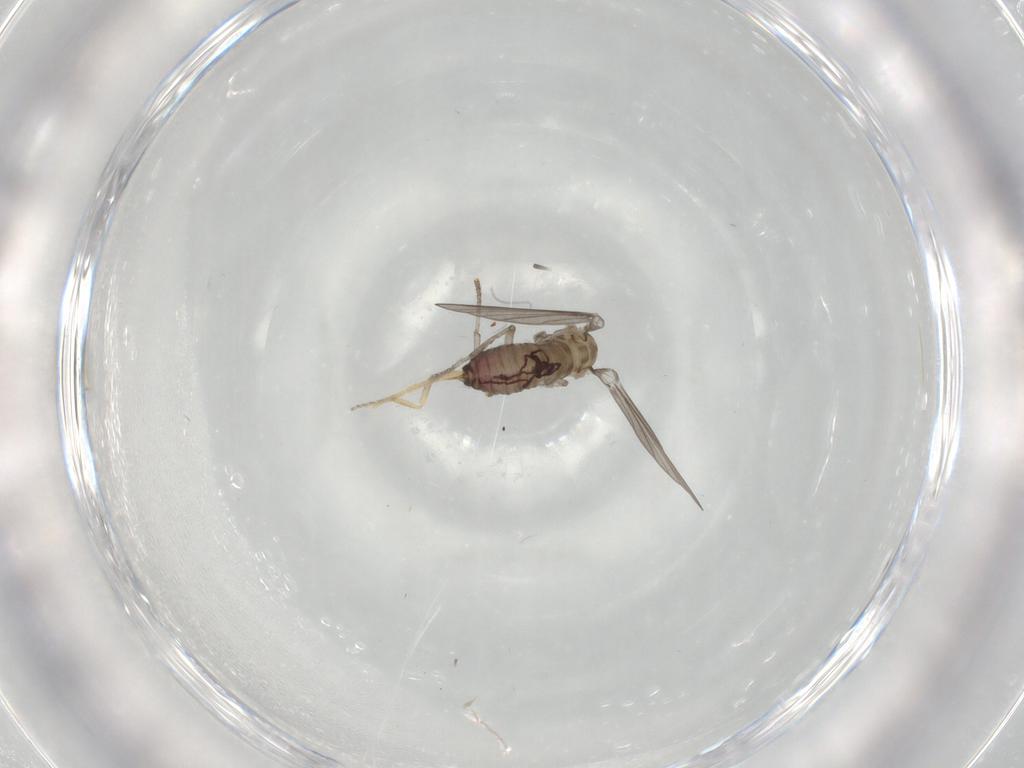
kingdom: Animalia
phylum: Arthropoda
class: Insecta
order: Diptera
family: Psychodidae
